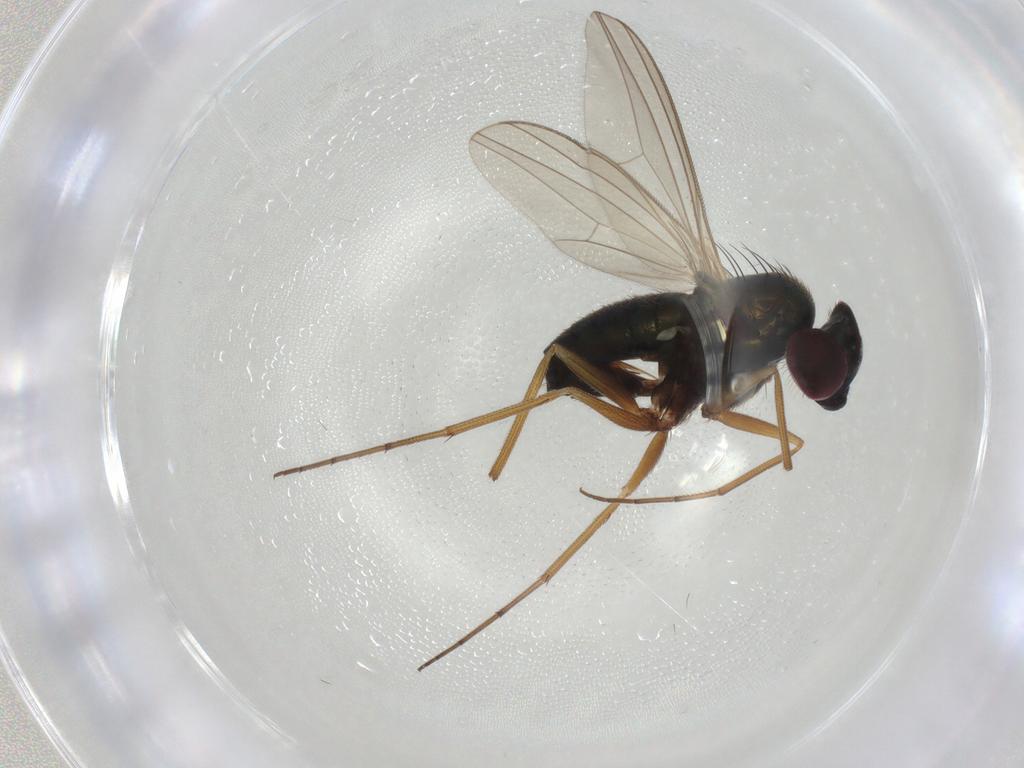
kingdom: Animalia
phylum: Arthropoda
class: Insecta
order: Diptera
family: Dolichopodidae
